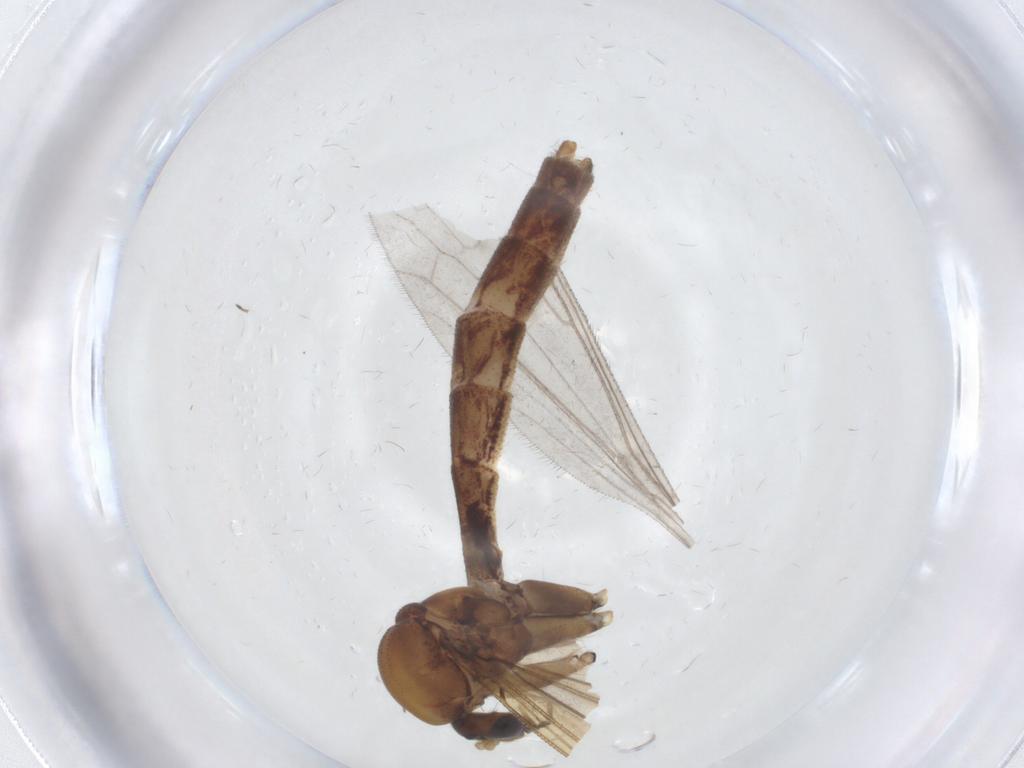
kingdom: Animalia
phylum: Arthropoda
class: Insecta
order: Diptera
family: Limoniidae
